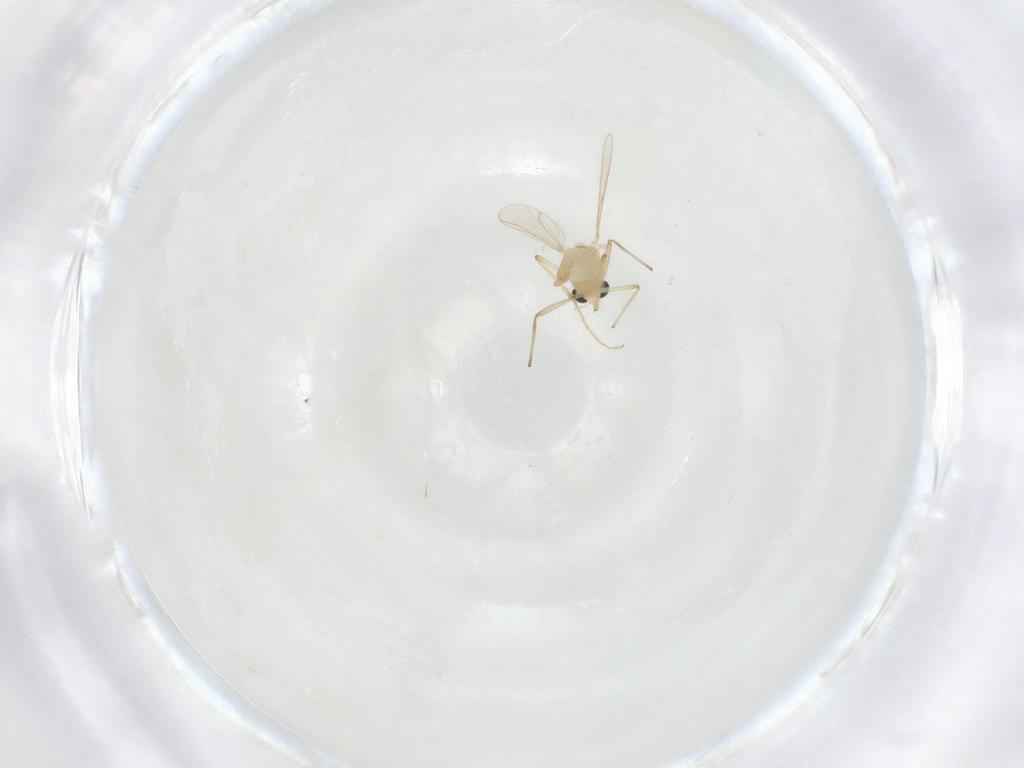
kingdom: Animalia
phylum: Arthropoda
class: Insecta
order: Diptera
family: Chironomidae
